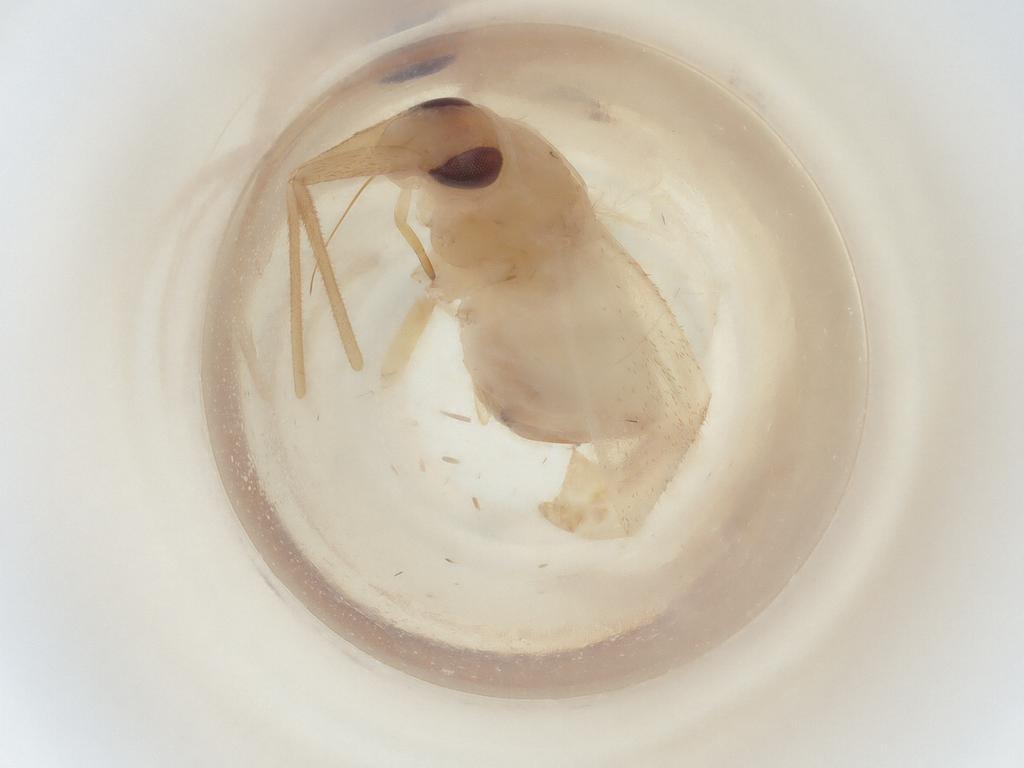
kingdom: Animalia
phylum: Arthropoda
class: Insecta
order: Hemiptera
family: Miridae
